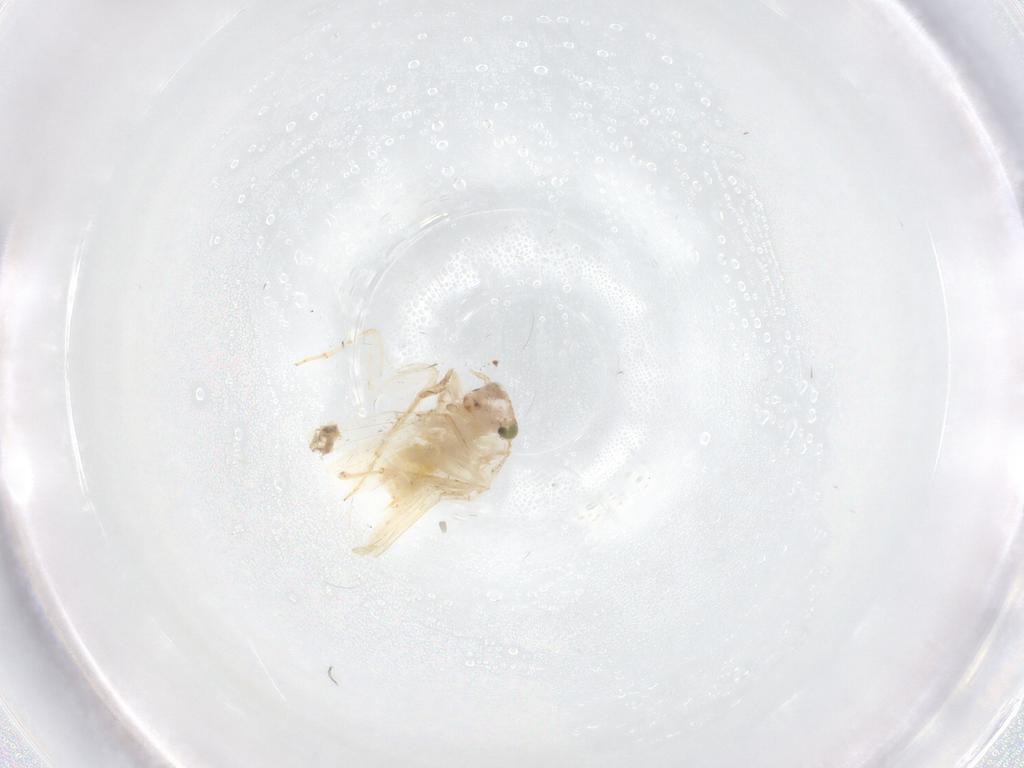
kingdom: Animalia
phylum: Arthropoda
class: Insecta
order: Psocodea
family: Lepidopsocidae
